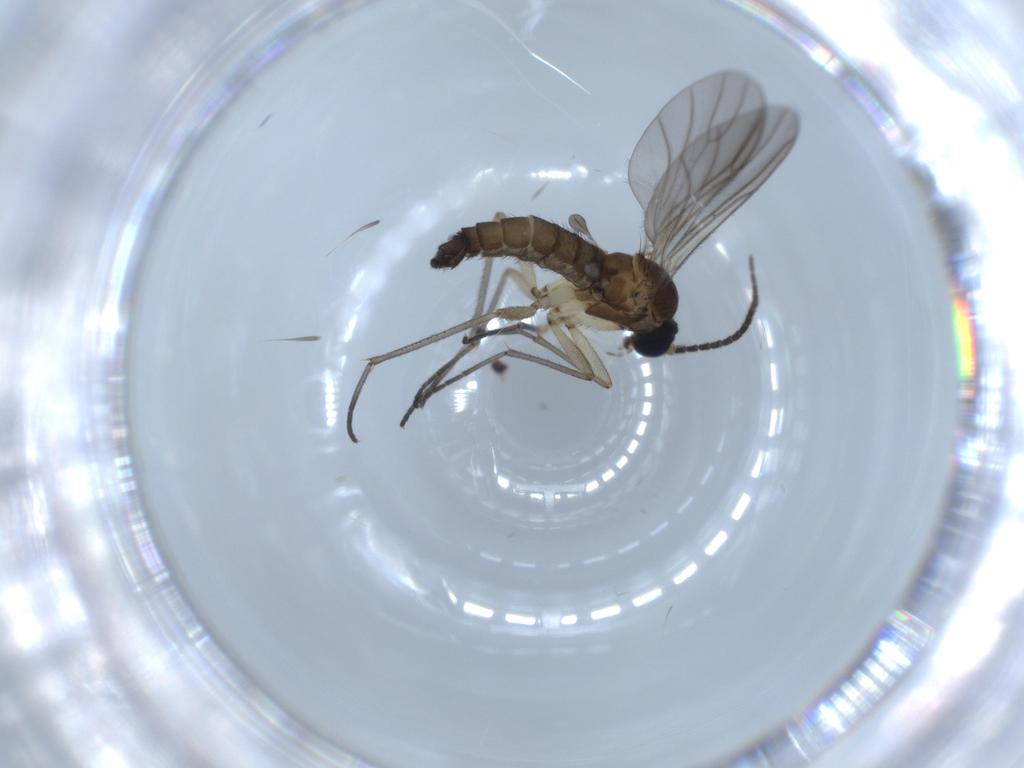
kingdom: Animalia
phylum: Arthropoda
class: Insecta
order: Diptera
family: Sciaridae
